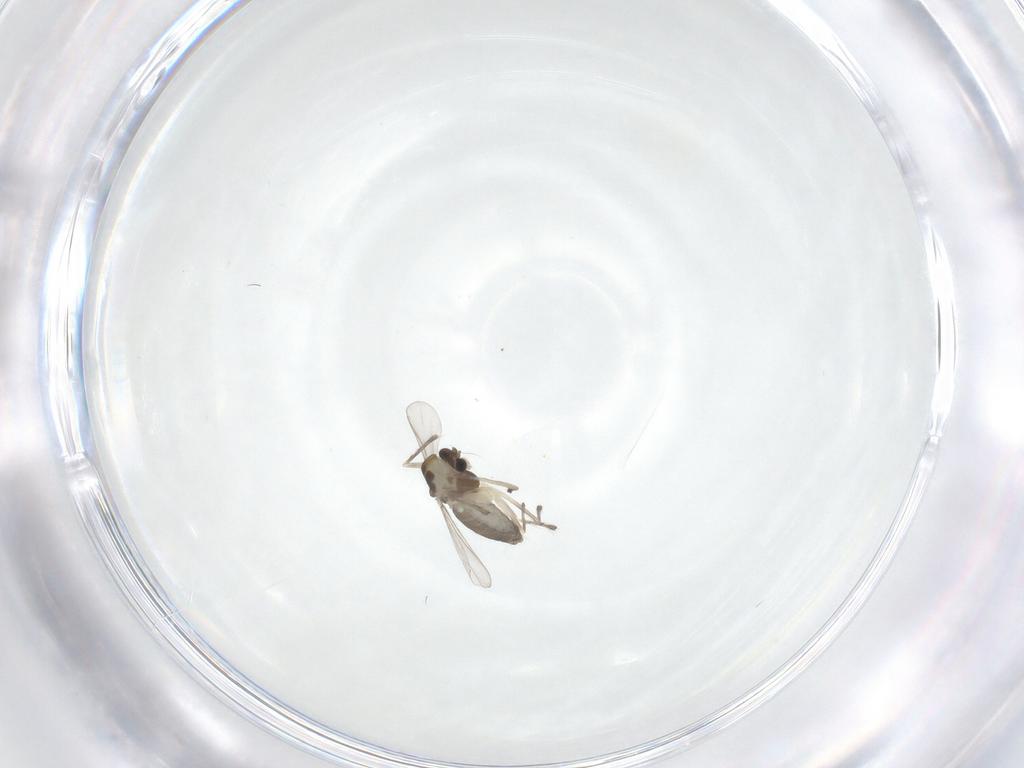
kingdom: Animalia
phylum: Arthropoda
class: Insecta
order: Diptera
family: Chironomidae
